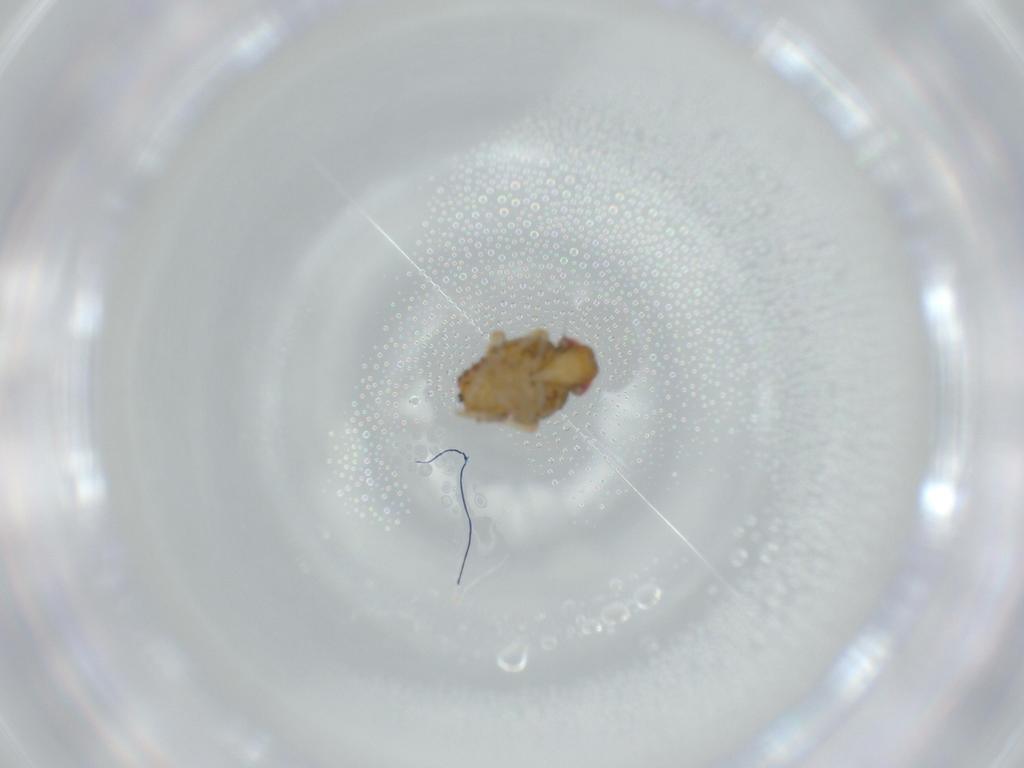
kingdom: Animalia
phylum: Arthropoda
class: Insecta
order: Hemiptera
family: Issidae
